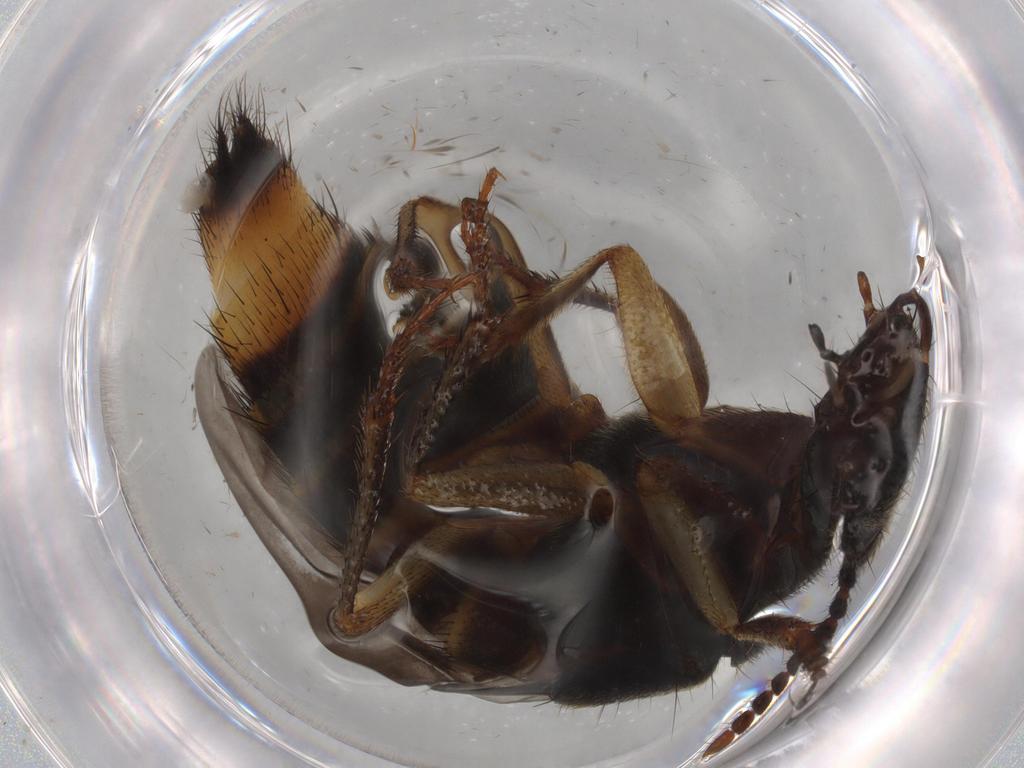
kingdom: Animalia
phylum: Arthropoda
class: Insecta
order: Coleoptera
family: Staphylinidae
